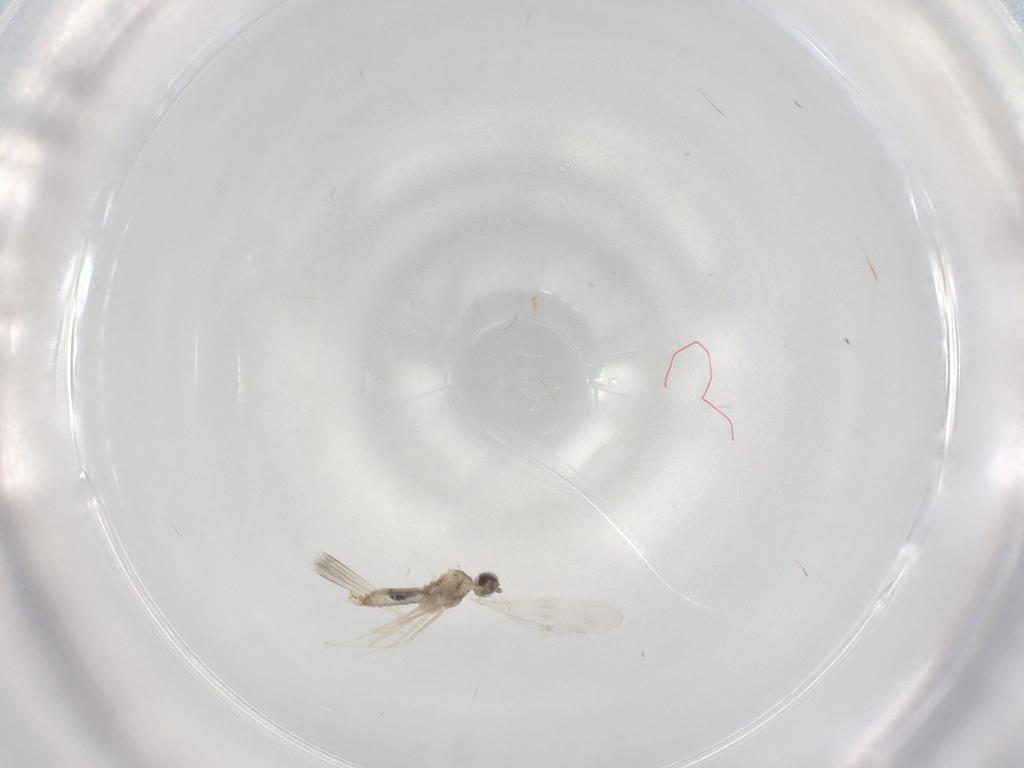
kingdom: Animalia
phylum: Arthropoda
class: Insecta
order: Diptera
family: Cecidomyiidae
